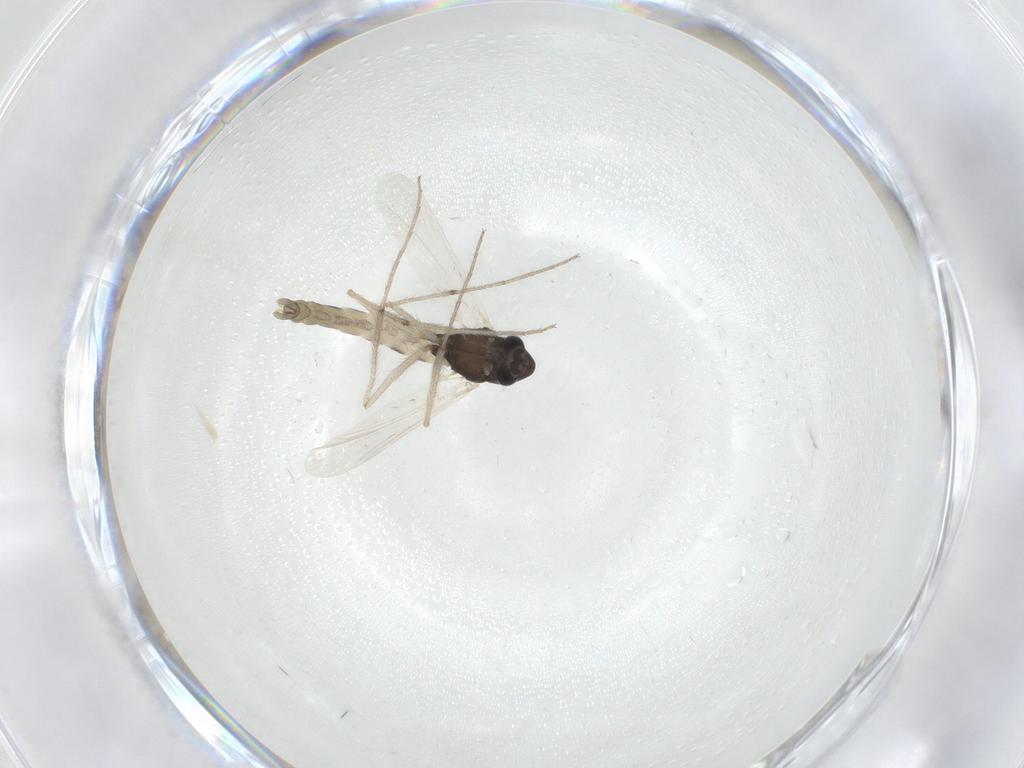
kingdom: Animalia
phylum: Arthropoda
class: Insecta
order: Diptera
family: Chironomidae
